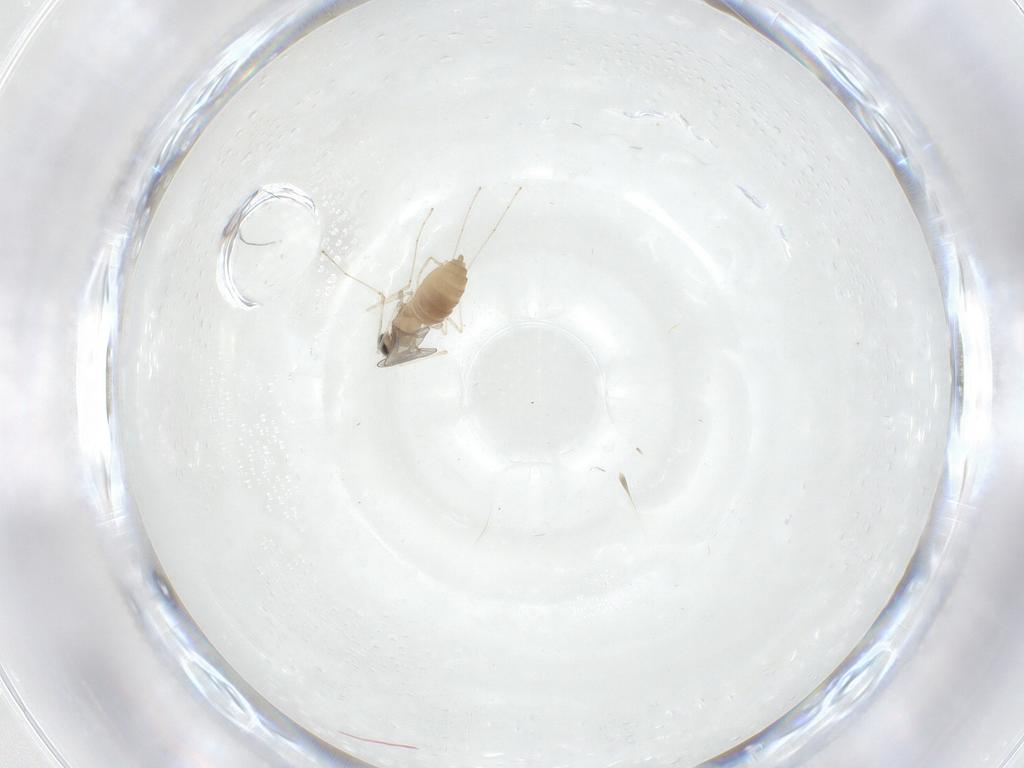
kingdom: Animalia
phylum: Arthropoda
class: Insecta
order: Diptera
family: Cecidomyiidae
